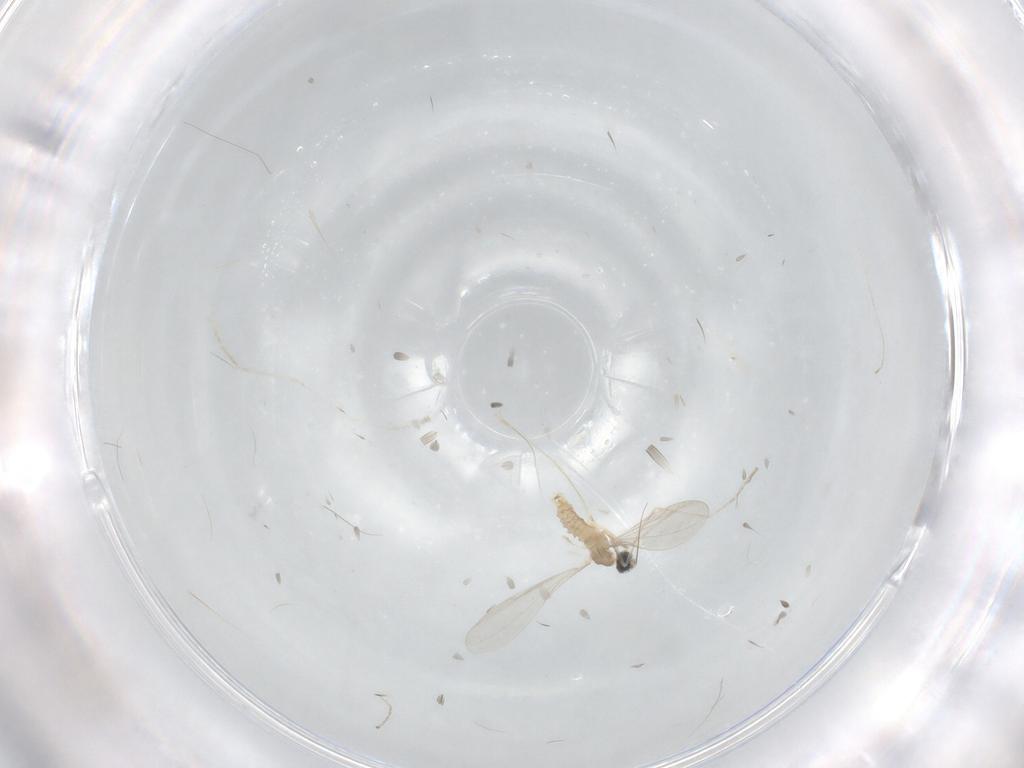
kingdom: Animalia
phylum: Arthropoda
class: Insecta
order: Diptera
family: Cecidomyiidae
